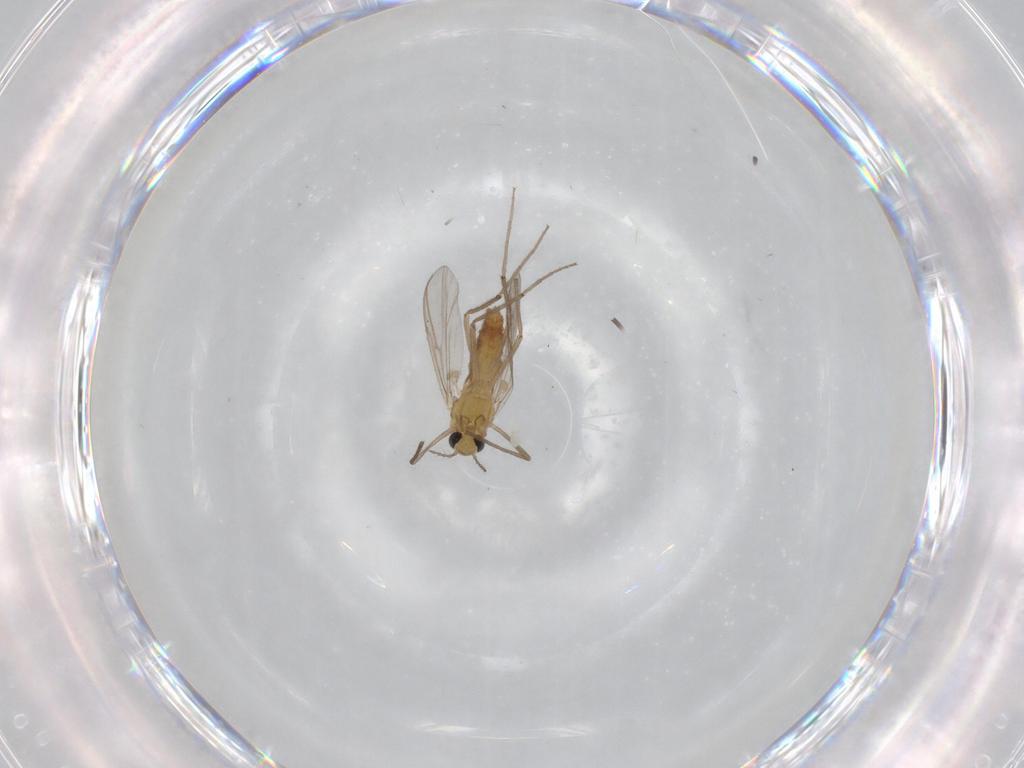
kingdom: Animalia
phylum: Arthropoda
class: Insecta
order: Diptera
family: Chironomidae
